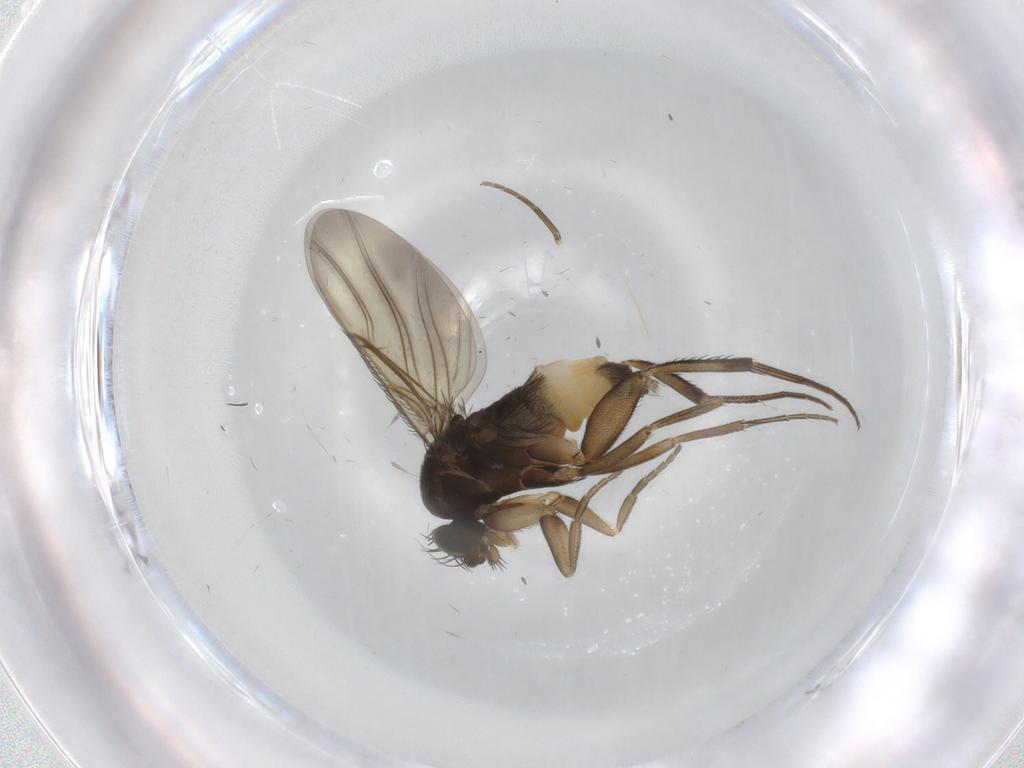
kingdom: Animalia
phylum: Arthropoda
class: Insecta
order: Diptera
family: Phoridae
